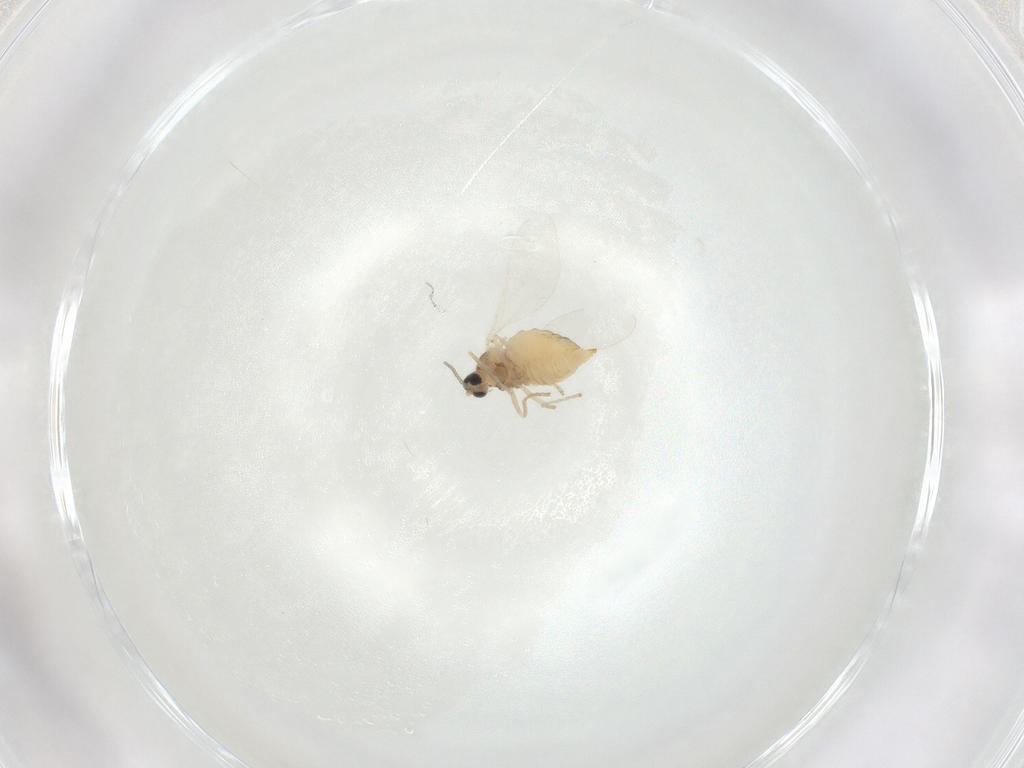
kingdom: Animalia
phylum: Arthropoda
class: Insecta
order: Diptera
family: Cecidomyiidae
